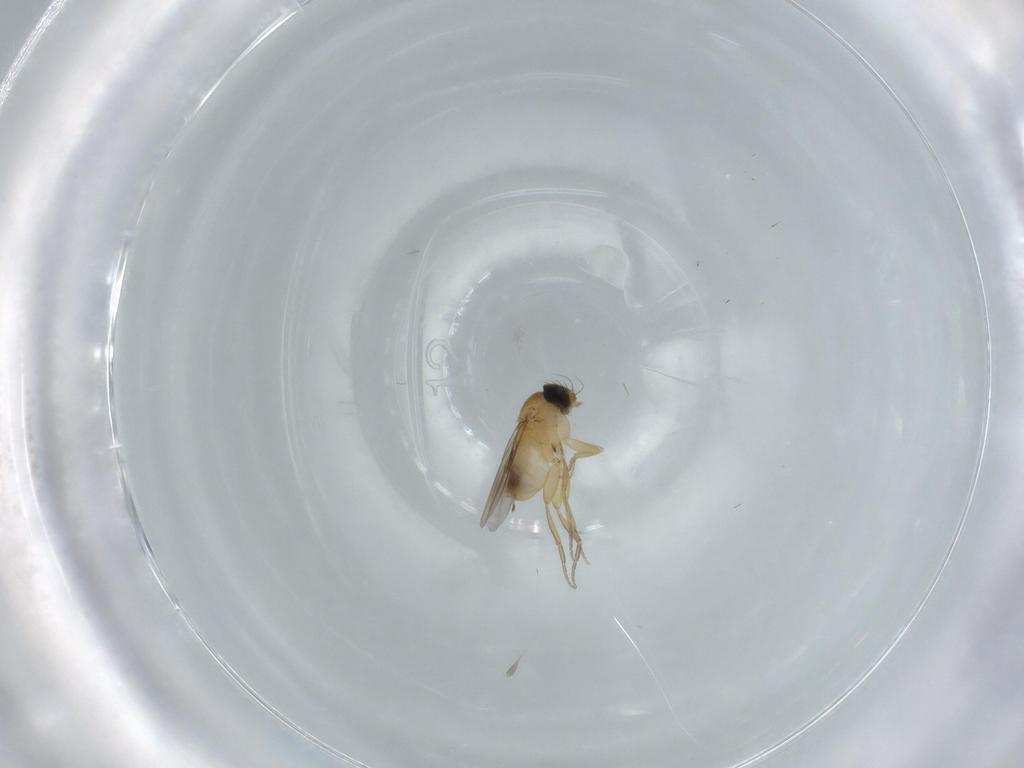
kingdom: Animalia
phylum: Arthropoda
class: Insecta
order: Diptera
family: Phoridae
